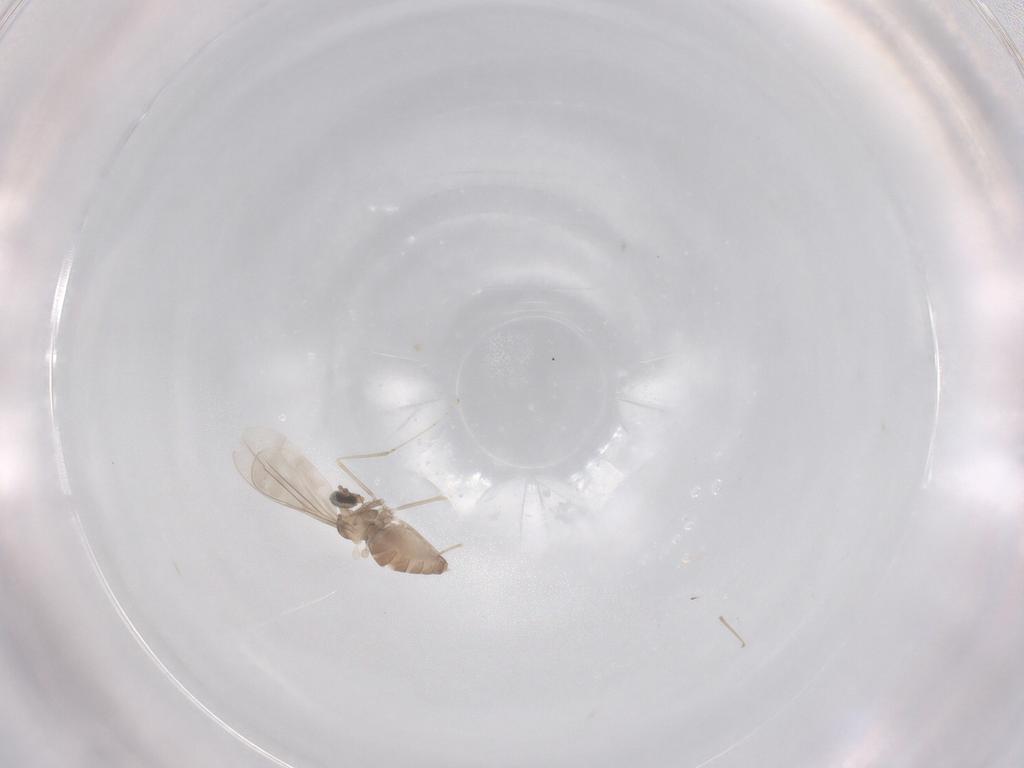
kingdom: Animalia
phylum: Arthropoda
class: Insecta
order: Diptera
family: Cecidomyiidae
